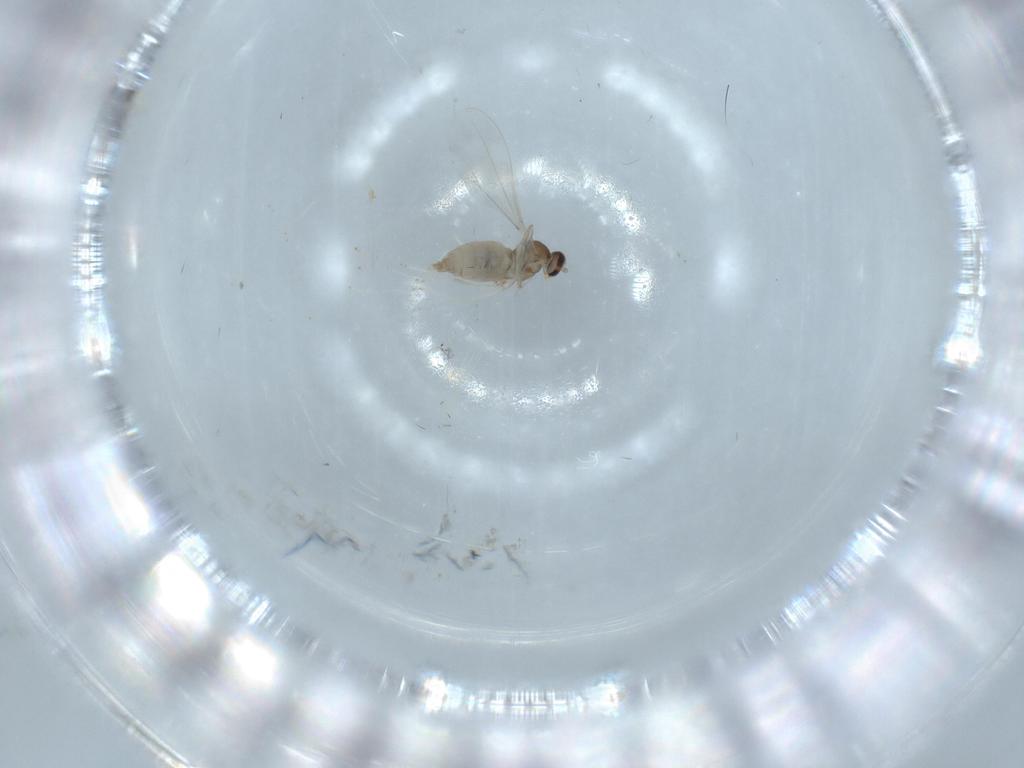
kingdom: Animalia
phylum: Arthropoda
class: Insecta
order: Diptera
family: Cecidomyiidae
